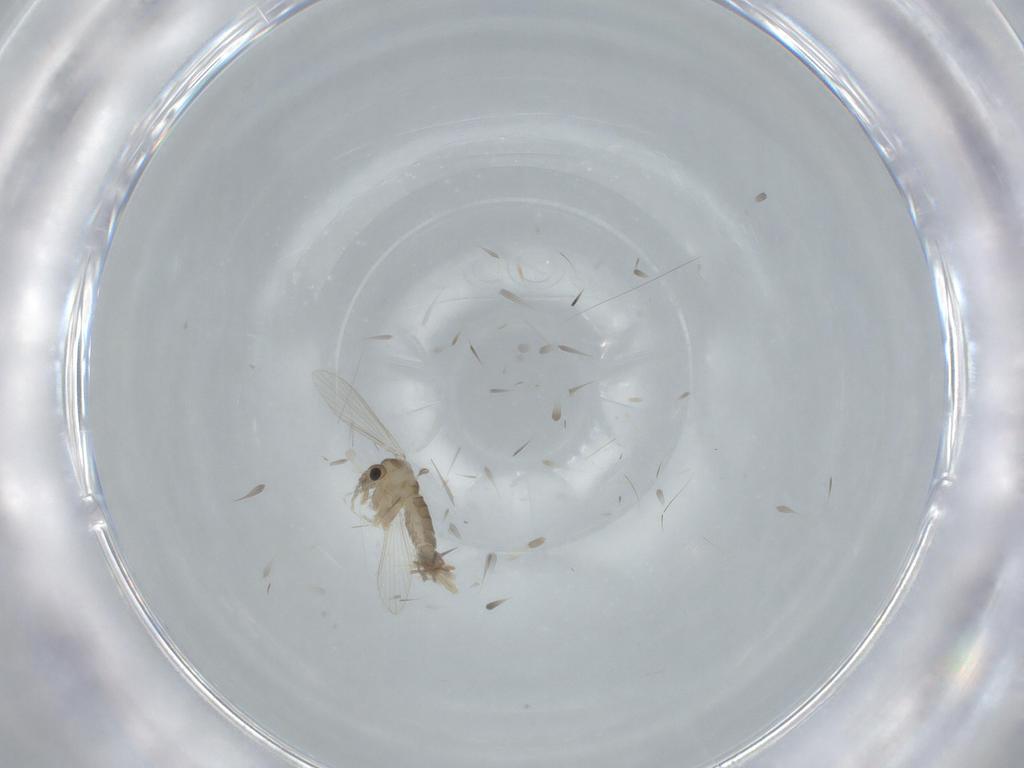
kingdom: Animalia
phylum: Arthropoda
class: Insecta
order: Diptera
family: Psychodidae
